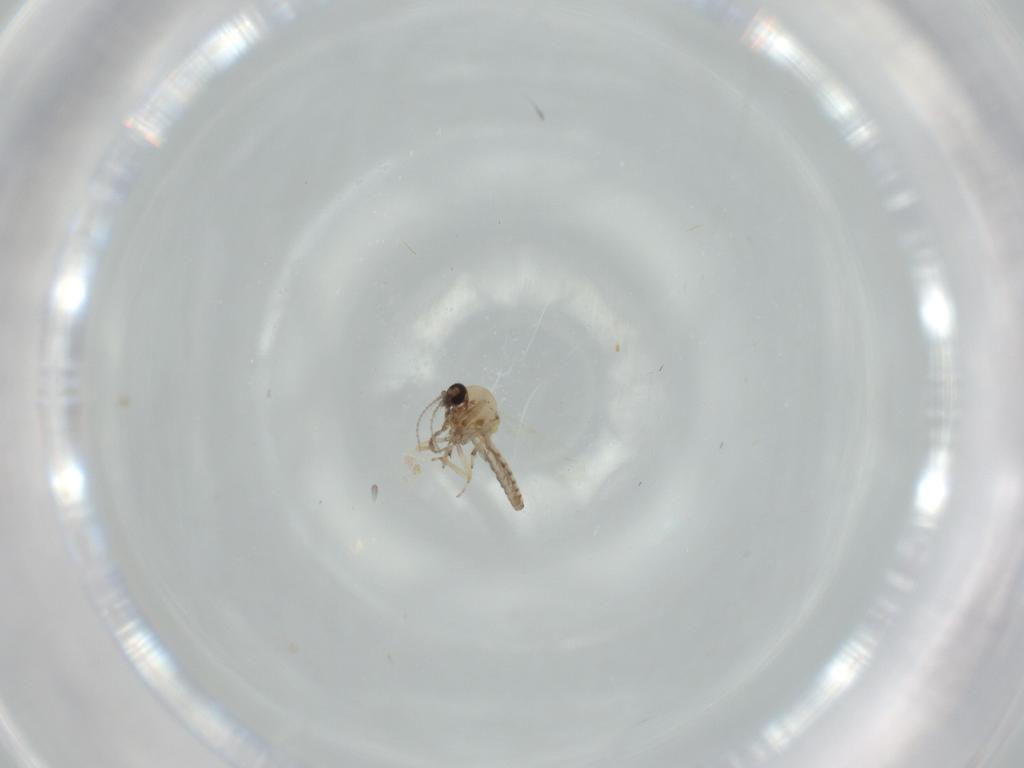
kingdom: Animalia
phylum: Arthropoda
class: Insecta
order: Diptera
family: Ceratopogonidae
